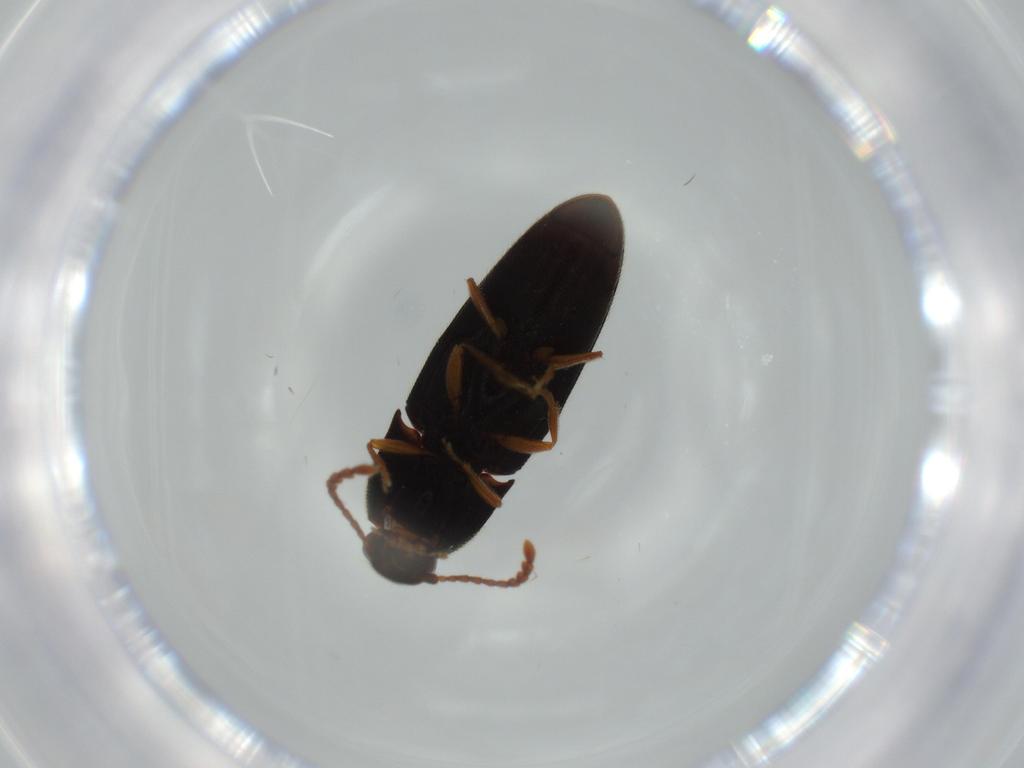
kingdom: Animalia
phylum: Arthropoda
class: Insecta
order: Coleoptera
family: Elateridae
